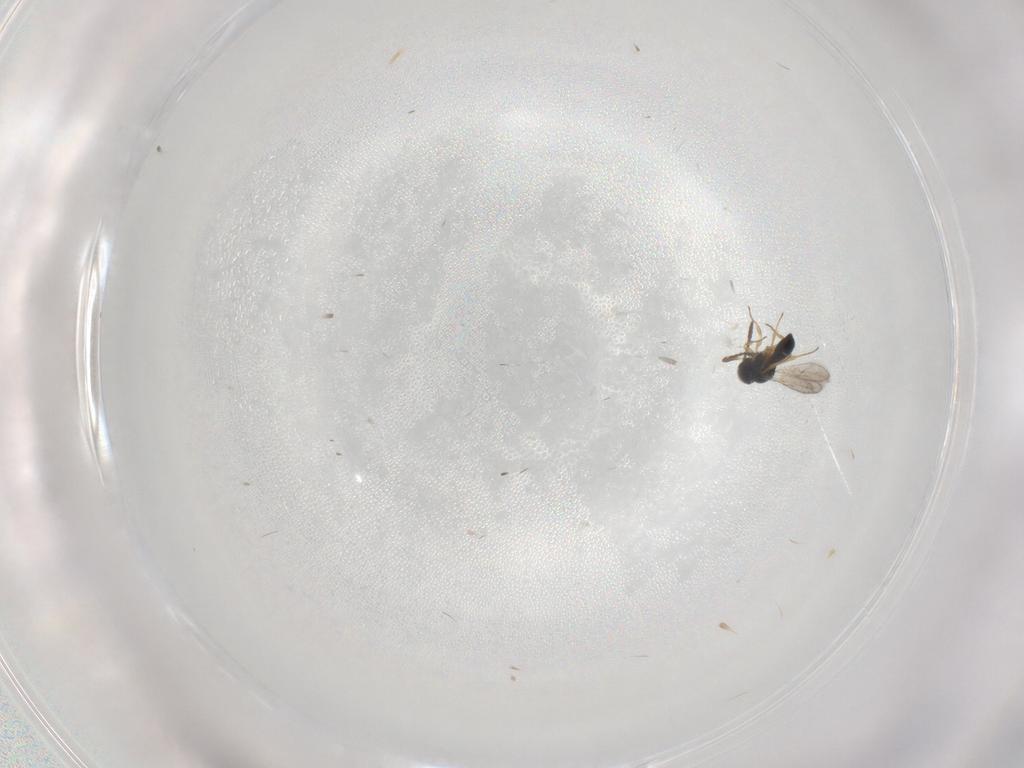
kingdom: Animalia
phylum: Arthropoda
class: Insecta
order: Hymenoptera
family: Scelionidae
